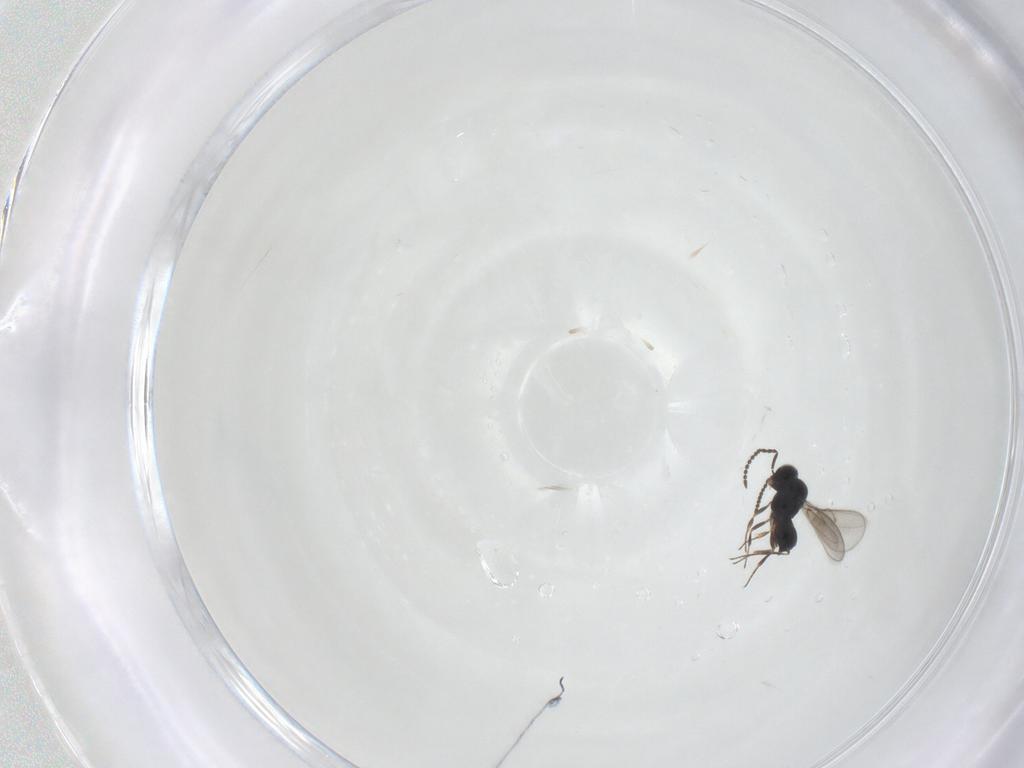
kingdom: Animalia
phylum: Arthropoda
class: Insecta
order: Hymenoptera
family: Scelionidae
